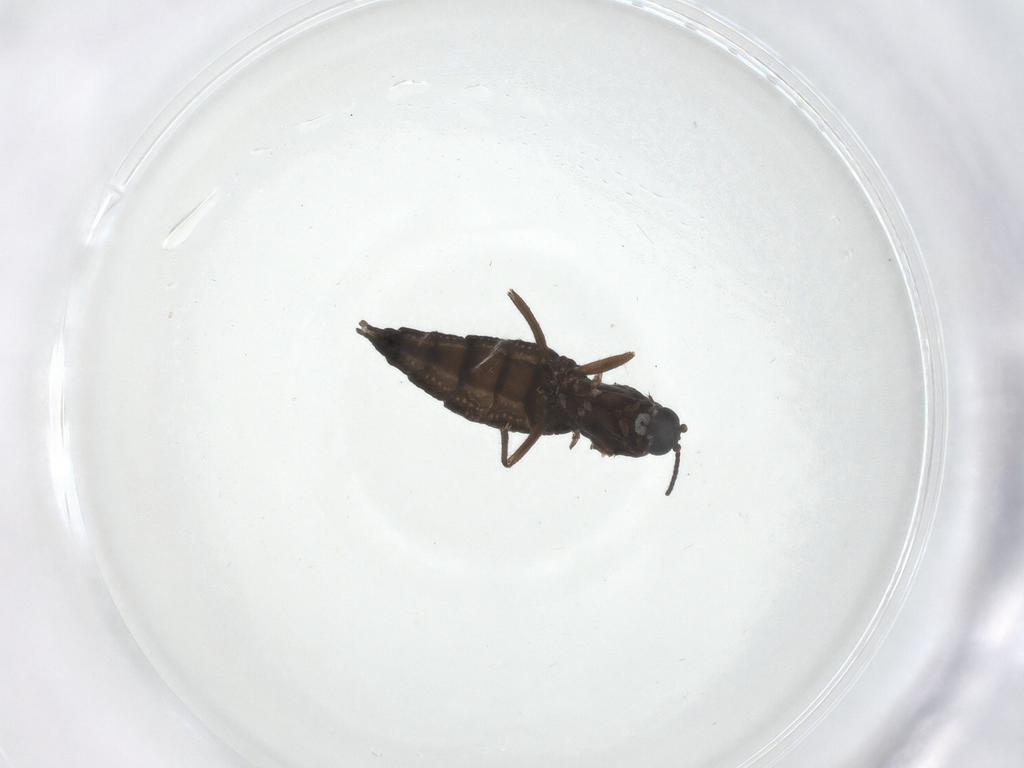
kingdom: Animalia
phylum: Arthropoda
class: Insecta
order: Diptera
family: Sciaridae
